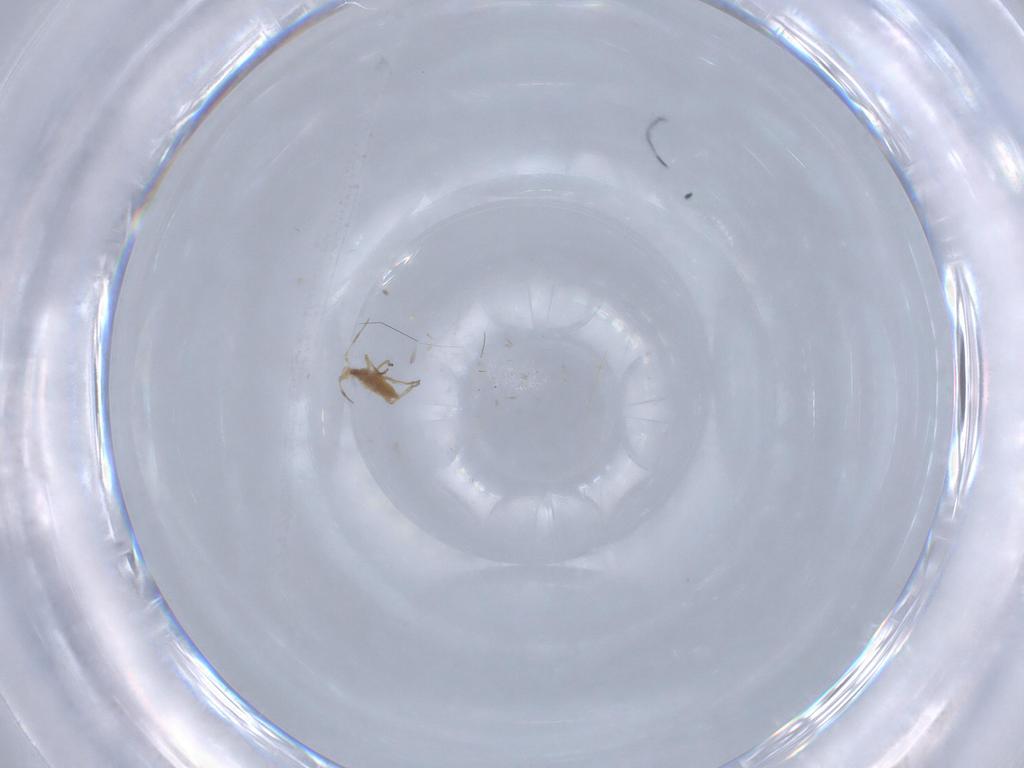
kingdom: Animalia
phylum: Arthropoda
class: Insecta
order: Hemiptera
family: Aphididae
